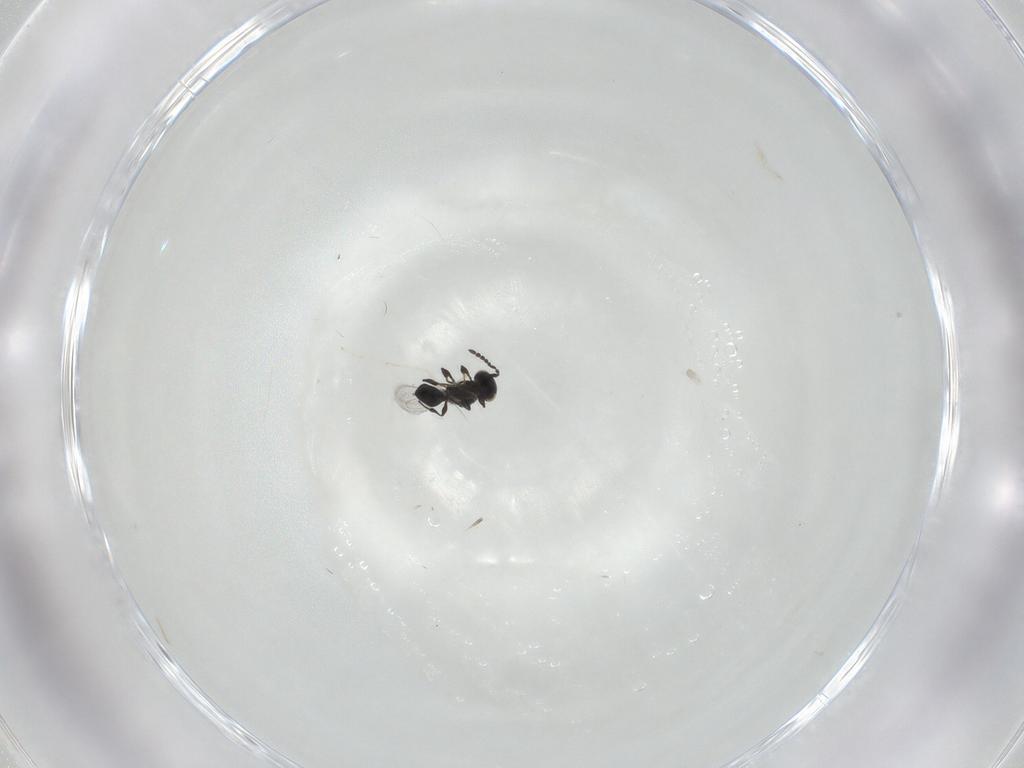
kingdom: Animalia
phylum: Arthropoda
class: Insecta
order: Hymenoptera
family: Platygastridae
